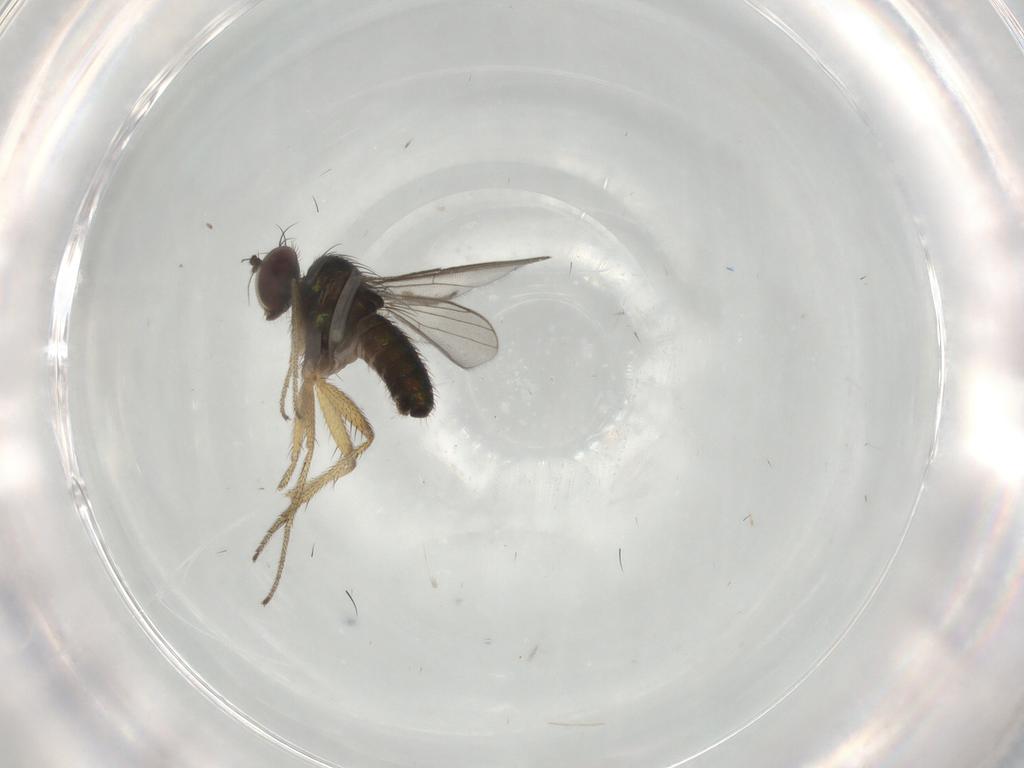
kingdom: Animalia
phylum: Arthropoda
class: Insecta
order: Diptera
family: Dolichopodidae
